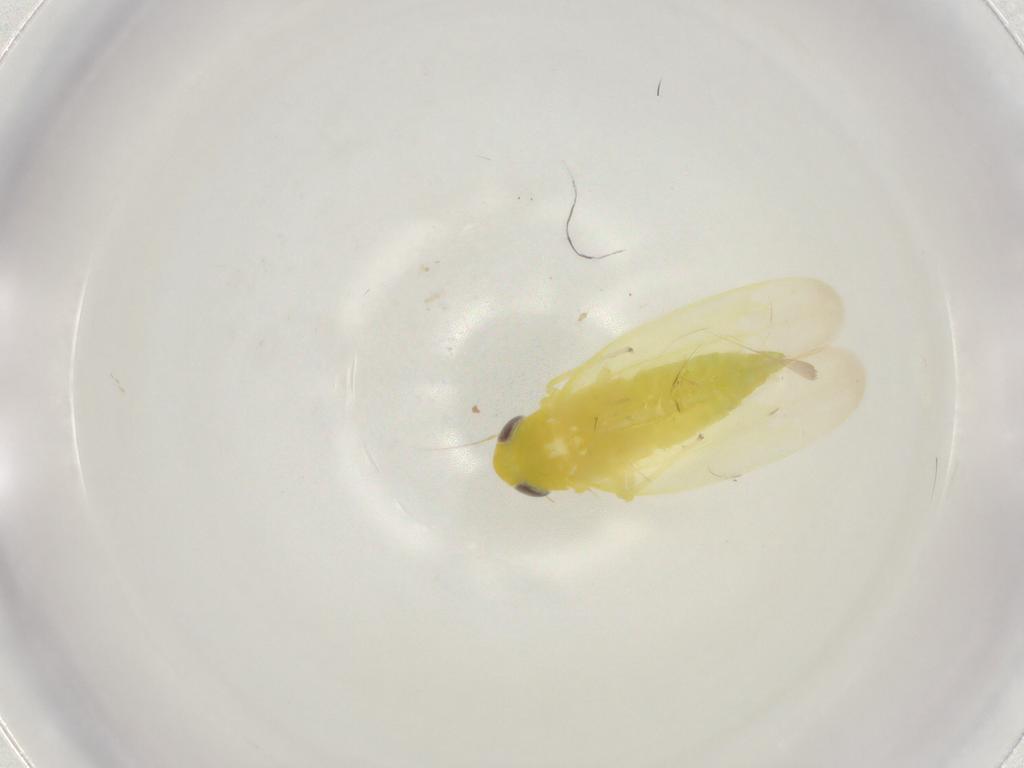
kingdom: Animalia
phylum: Arthropoda
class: Insecta
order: Hemiptera
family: Cicadellidae
